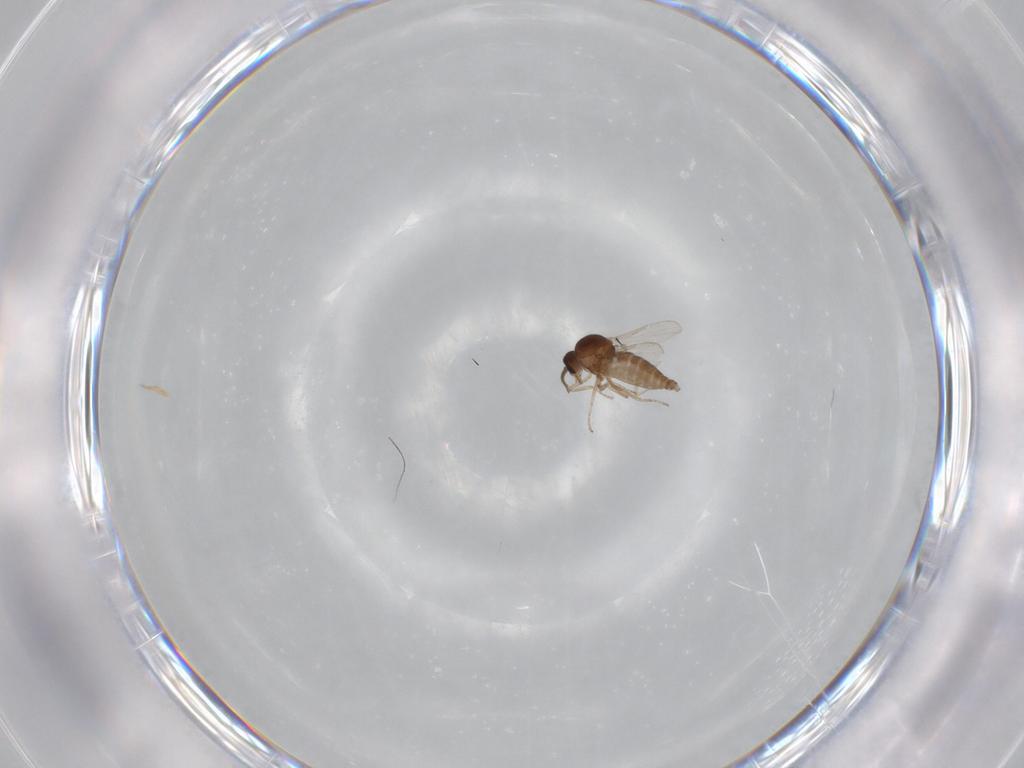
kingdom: Animalia
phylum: Arthropoda
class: Insecta
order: Diptera
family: Ceratopogonidae
